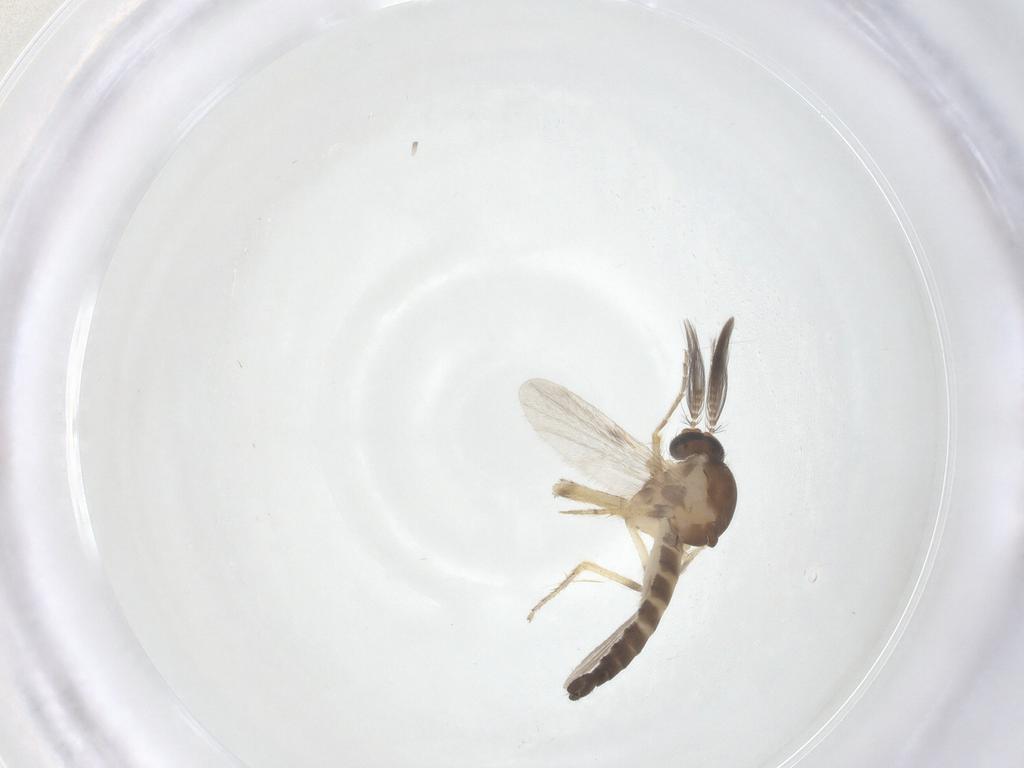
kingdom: Animalia
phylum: Arthropoda
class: Insecta
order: Diptera
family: Ceratopogonidae
